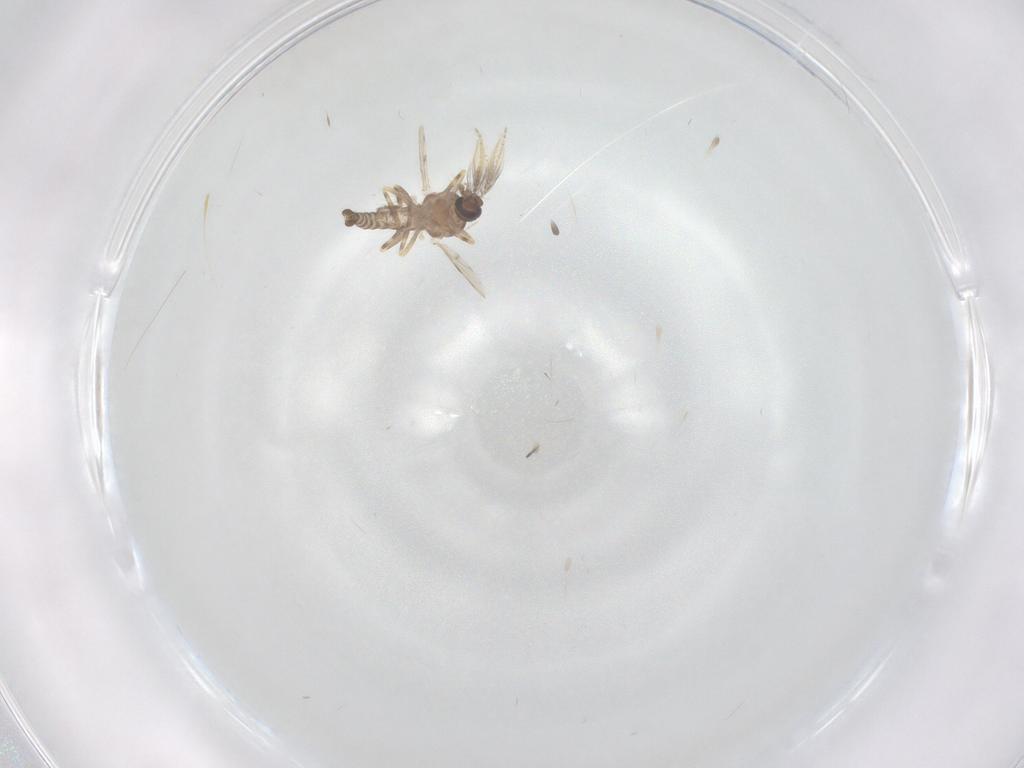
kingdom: Animalia
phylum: Arthropoda
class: Insecta
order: Diptera
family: Ceratopogonidae
